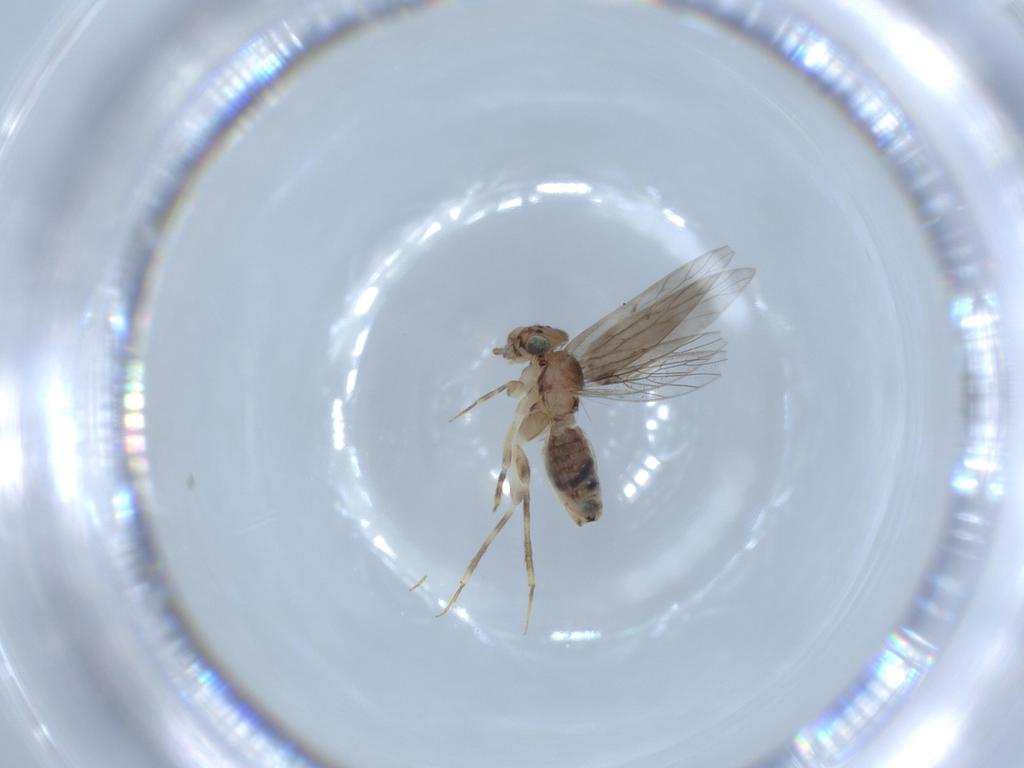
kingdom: Animalia
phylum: Arthropoda
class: Insecta
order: Psocodea
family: Lepidopsocidae
